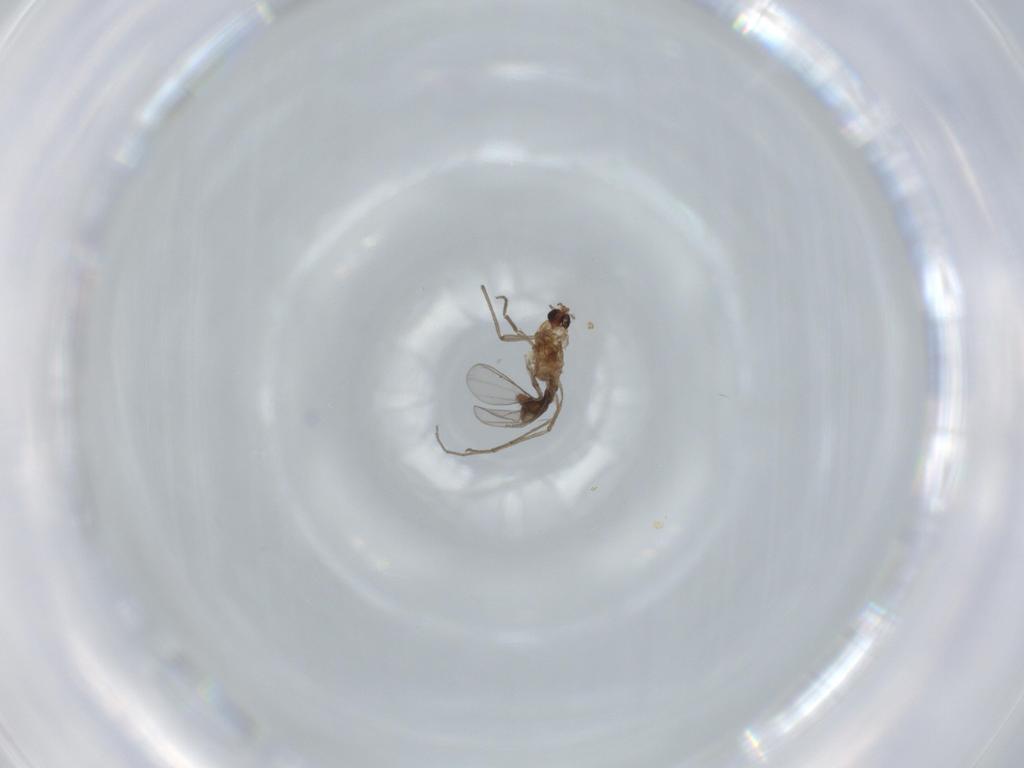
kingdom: Animalia
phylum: Arthropoda
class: Insecta
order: Diptera
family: Chironomidae
